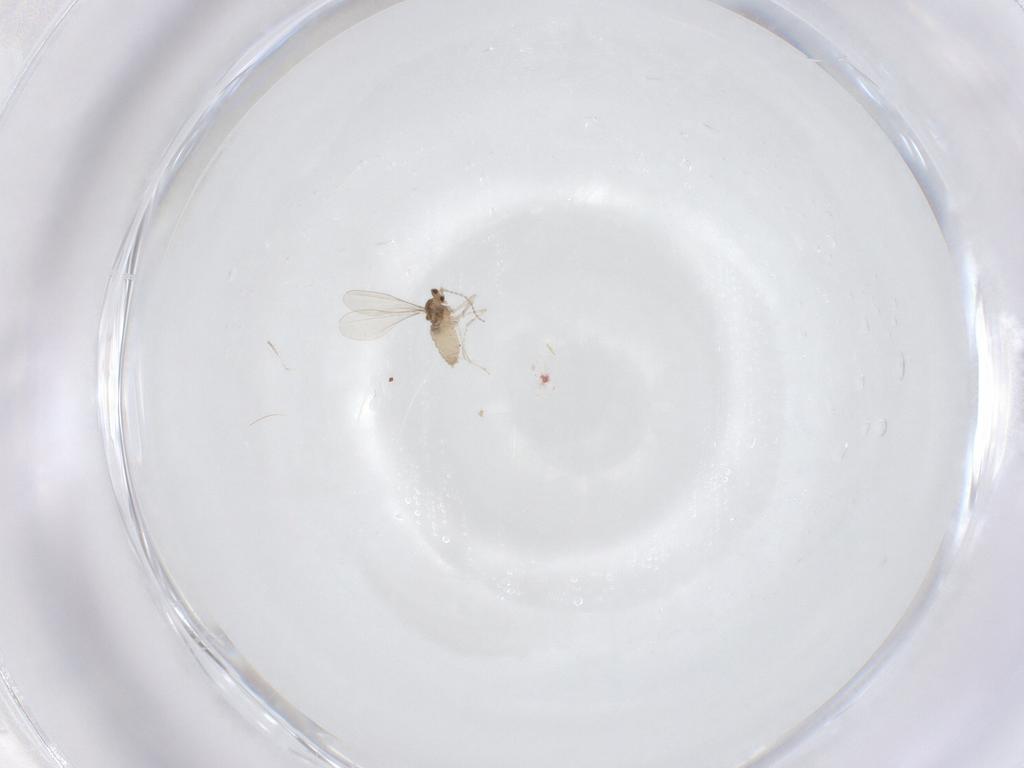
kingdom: Animalia
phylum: Arthropoda
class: Insecta
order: Diptera
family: Cecidomyiidae
